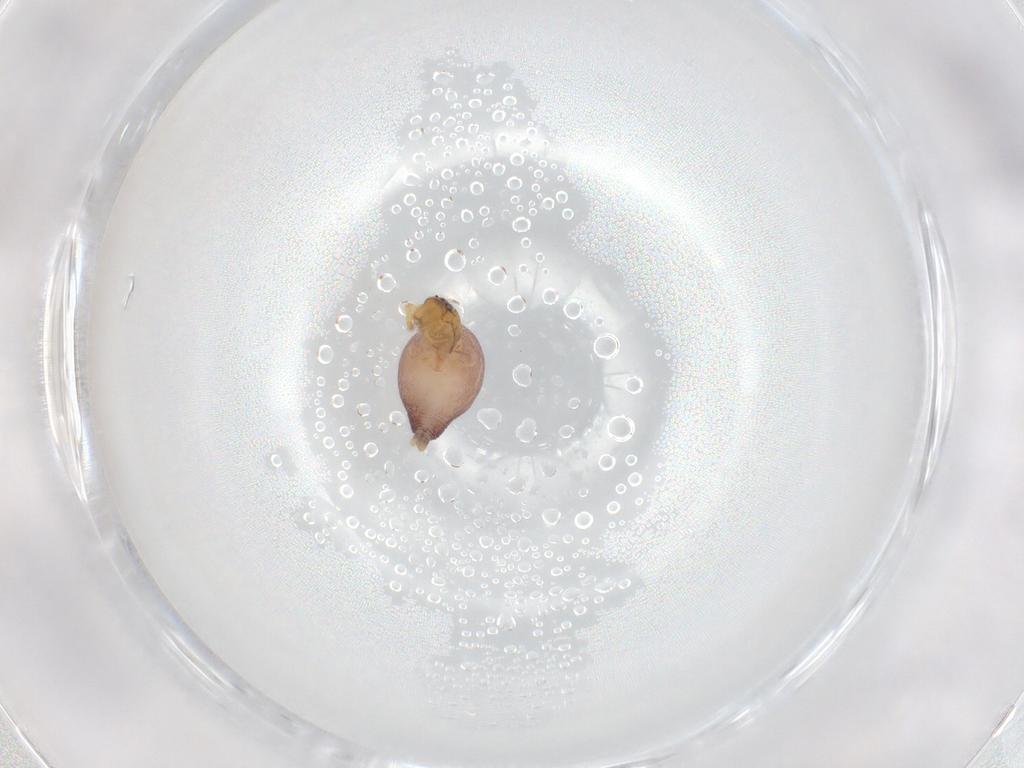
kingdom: Animalia
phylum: Arthropoda
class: Arachnida
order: Araneae
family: Dictynidae
